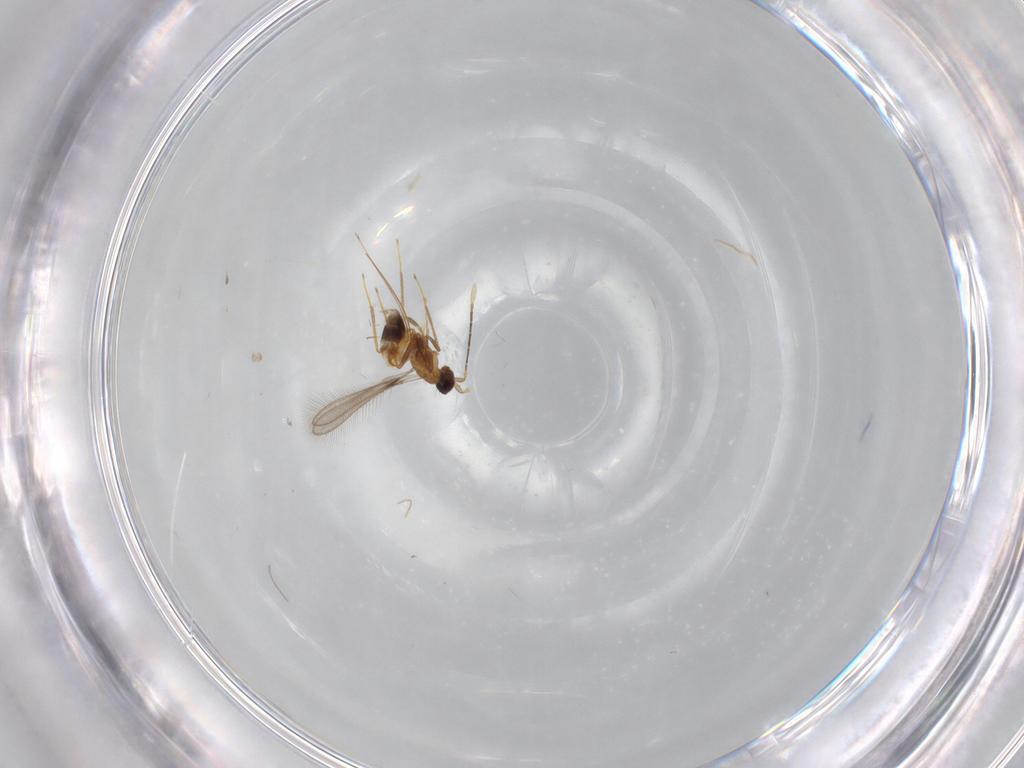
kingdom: Animalia
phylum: Arthropoda
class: Insecta
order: Hymenoptera
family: Mymaridae
